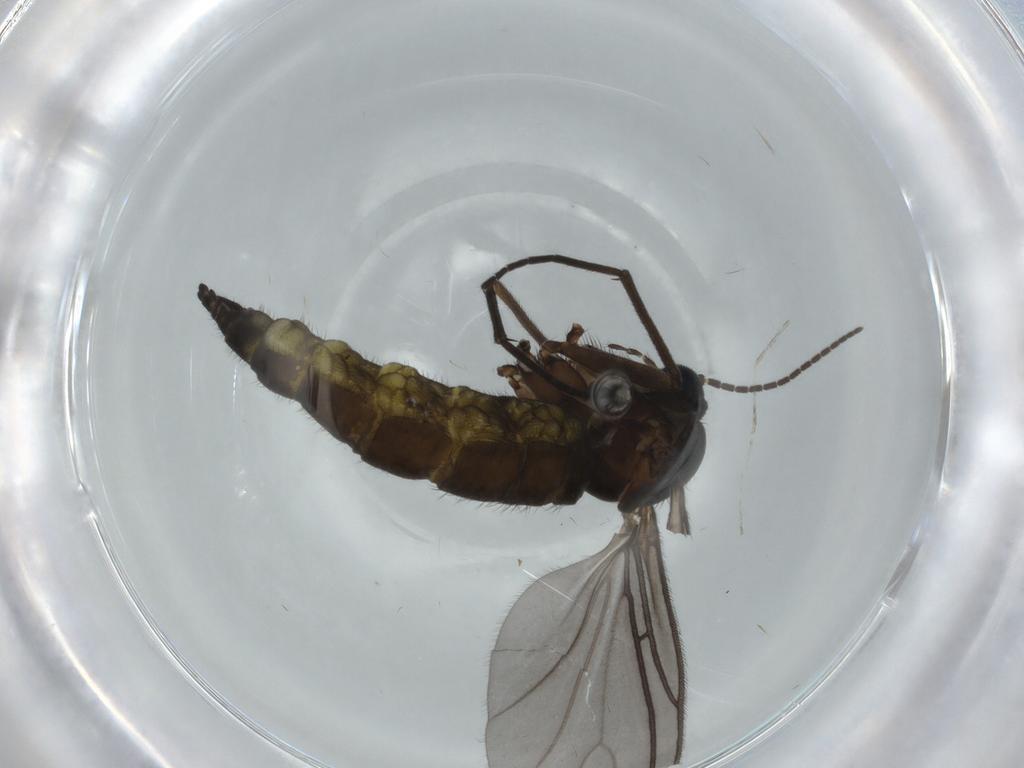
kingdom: Animalia
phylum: Arthropoda
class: Insecta
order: Diptera
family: Sciaridae
